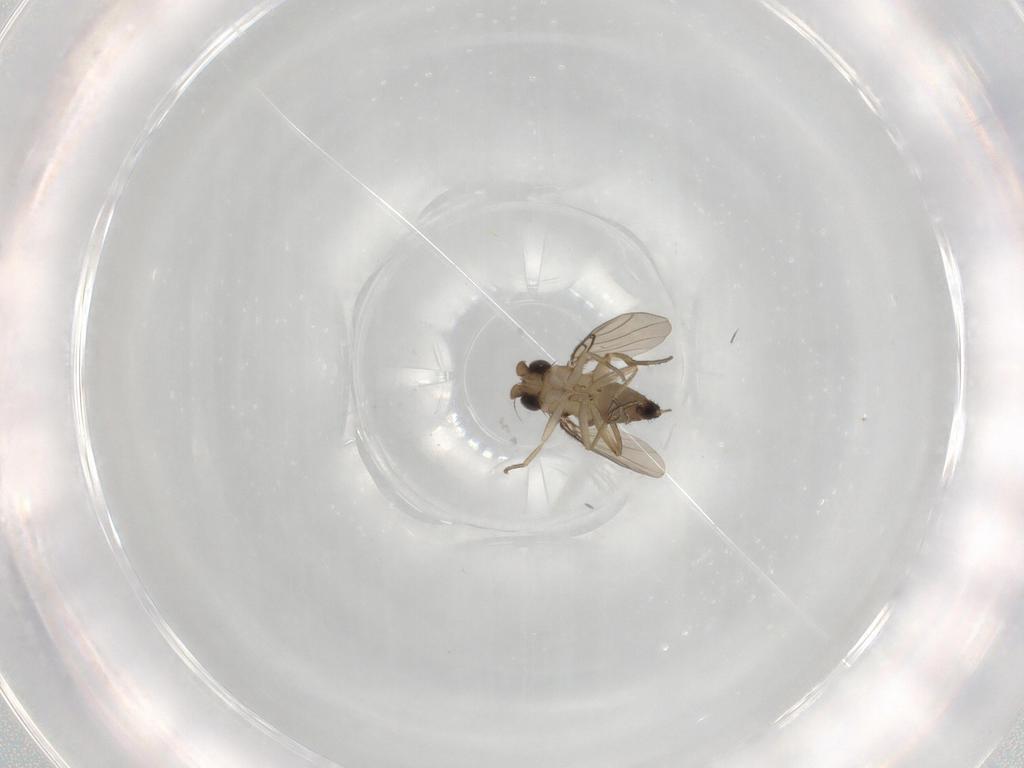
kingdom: Animalia
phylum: Arthropoda
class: Insecta
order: Diptera
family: Phoridae
